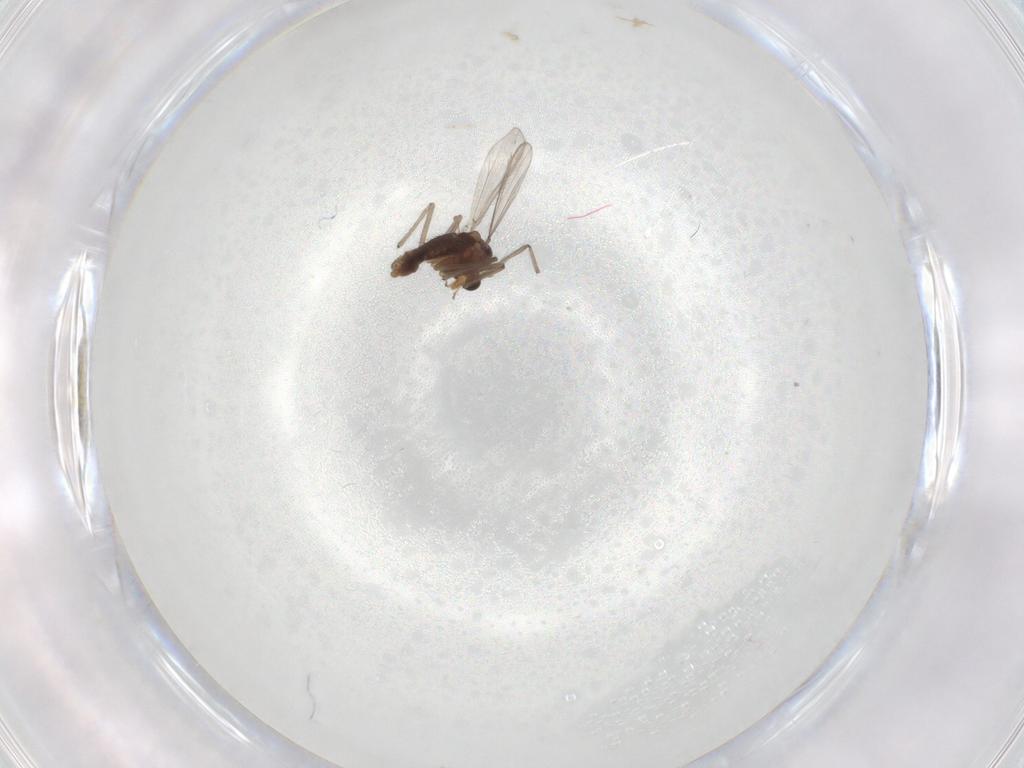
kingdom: Animalia
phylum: Arthropoda
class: Insecta
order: Diptera
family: Cecidomyiidae
